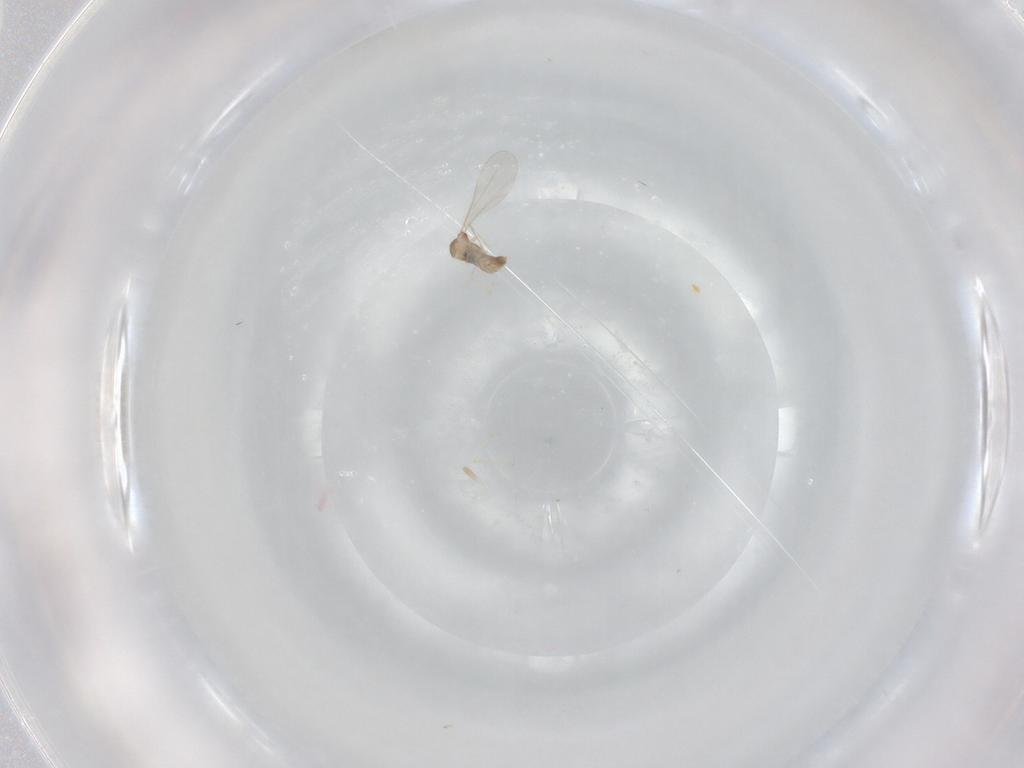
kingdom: Animalia
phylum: Arthropoda
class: Insecta
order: Diptera
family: Cecidomyiidae
